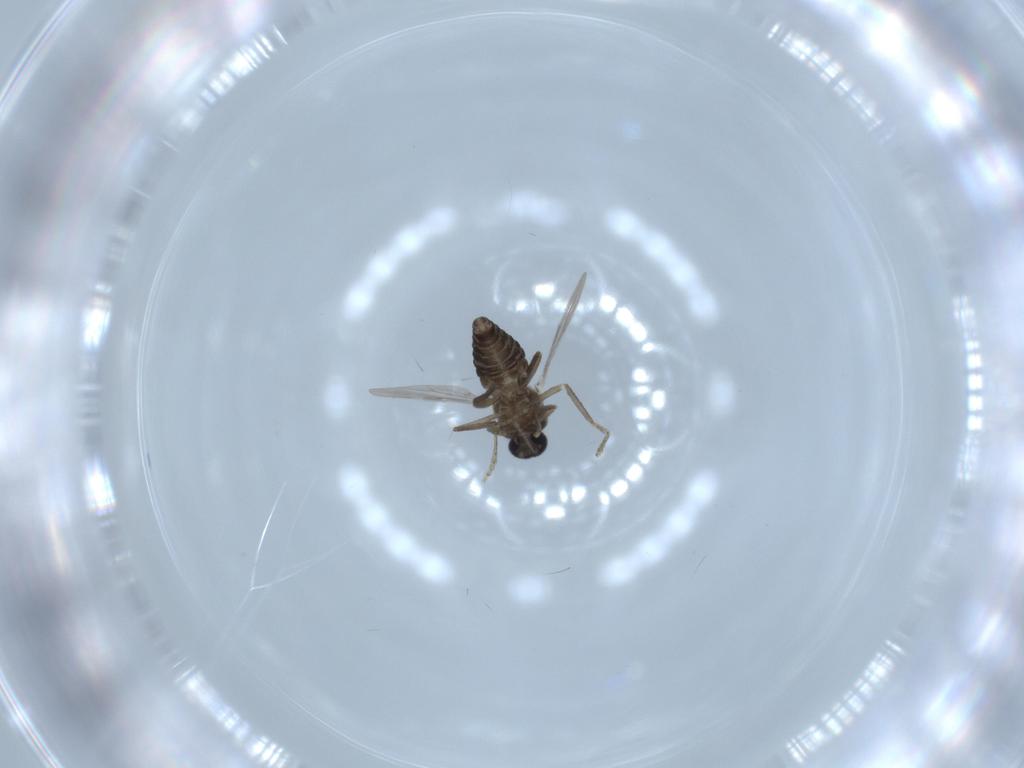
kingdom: Animalia
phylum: Arthropoda
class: Insecta
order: Diptera
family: Ceratopogonidae
